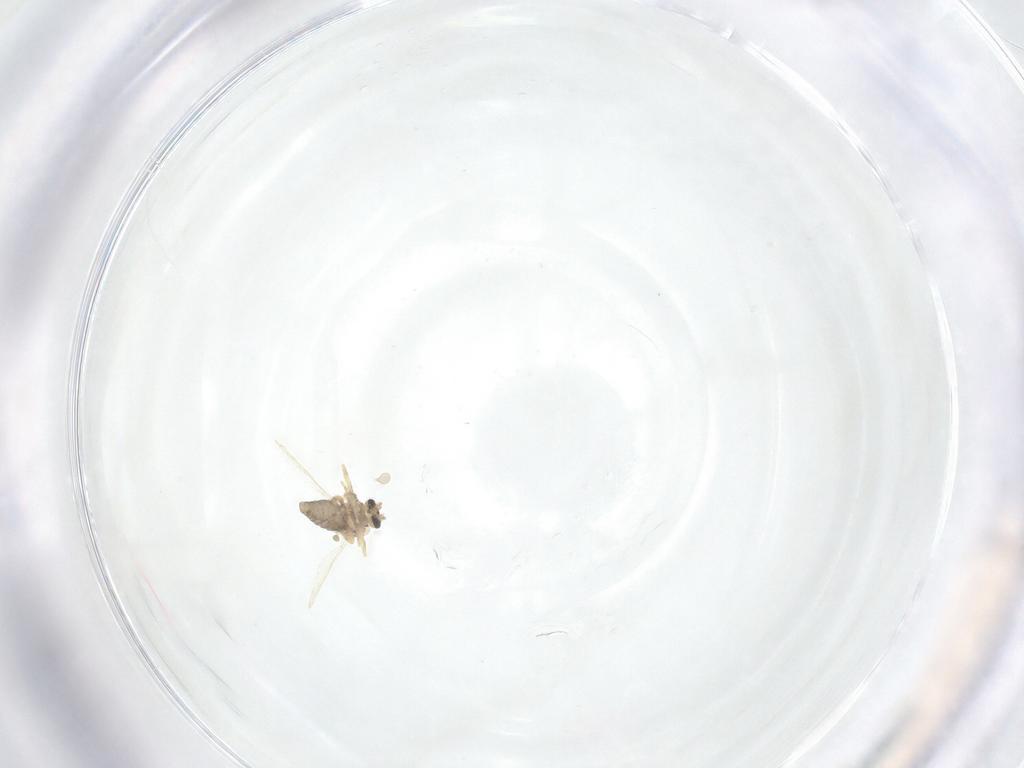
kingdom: Animalia
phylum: Arthropoda
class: Insecta
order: Diptera
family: Cecidomyiidae
